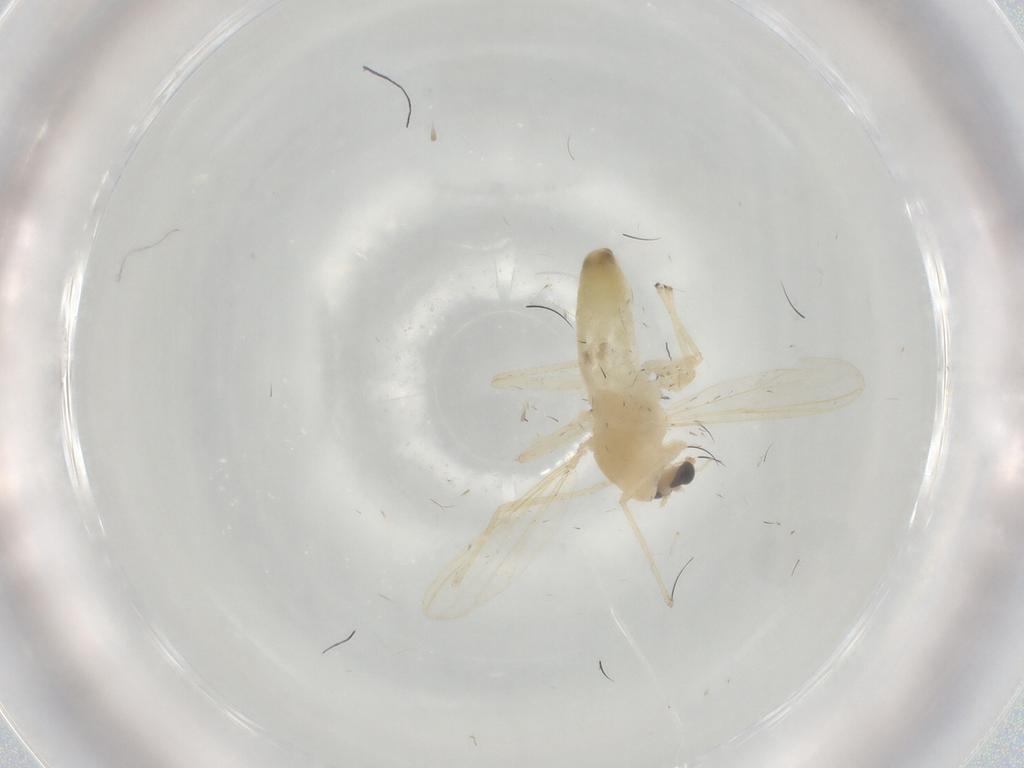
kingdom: Animalia
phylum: Arthropoda
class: Insecta
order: Diptera
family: Chironomidae
